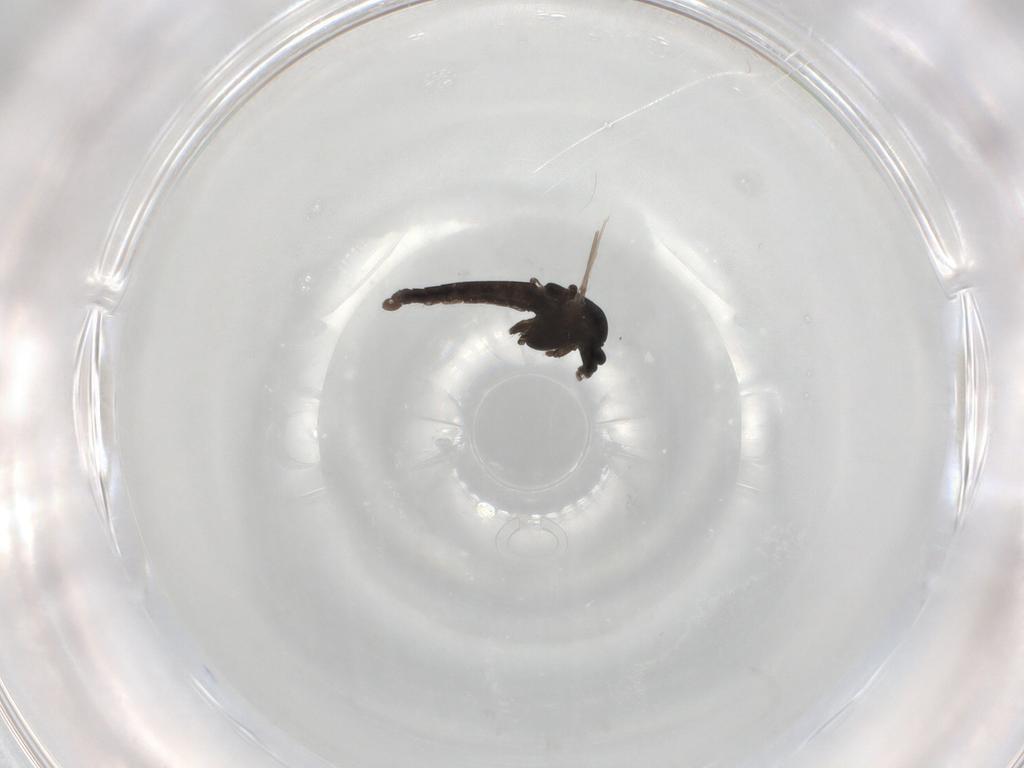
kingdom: Animalia
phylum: Arthropoda
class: Insecta
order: Diptera
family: Chironomidae
